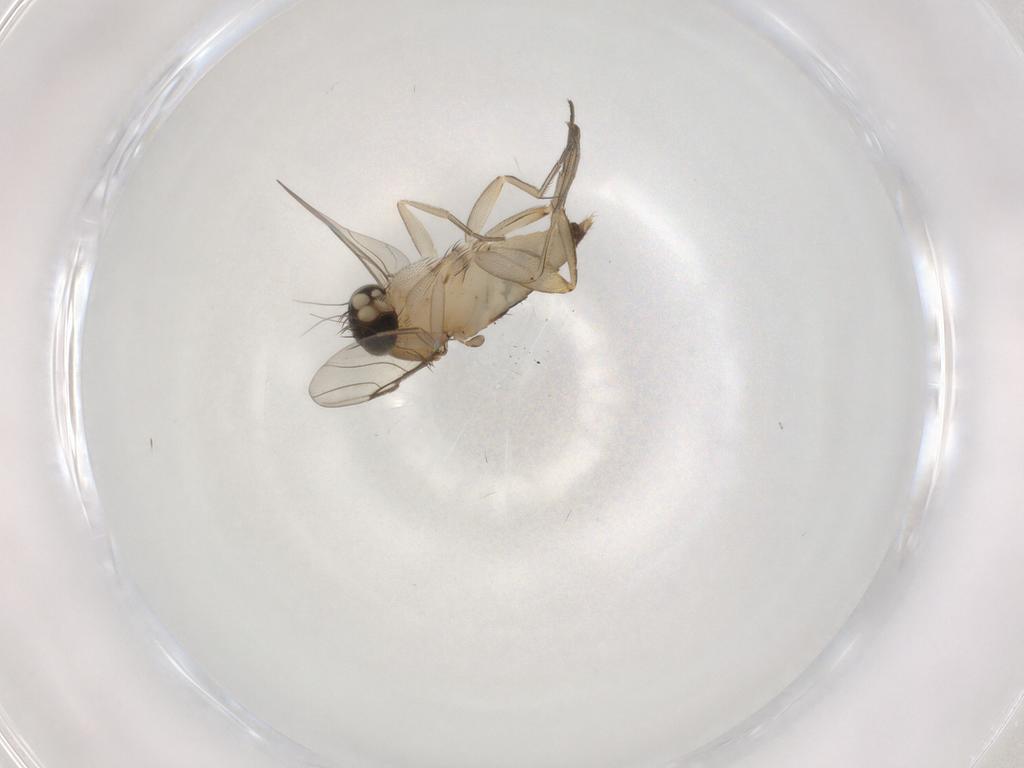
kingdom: Animalia
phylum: Arthropoda
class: Insecta
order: Diptera
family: Phoridae
